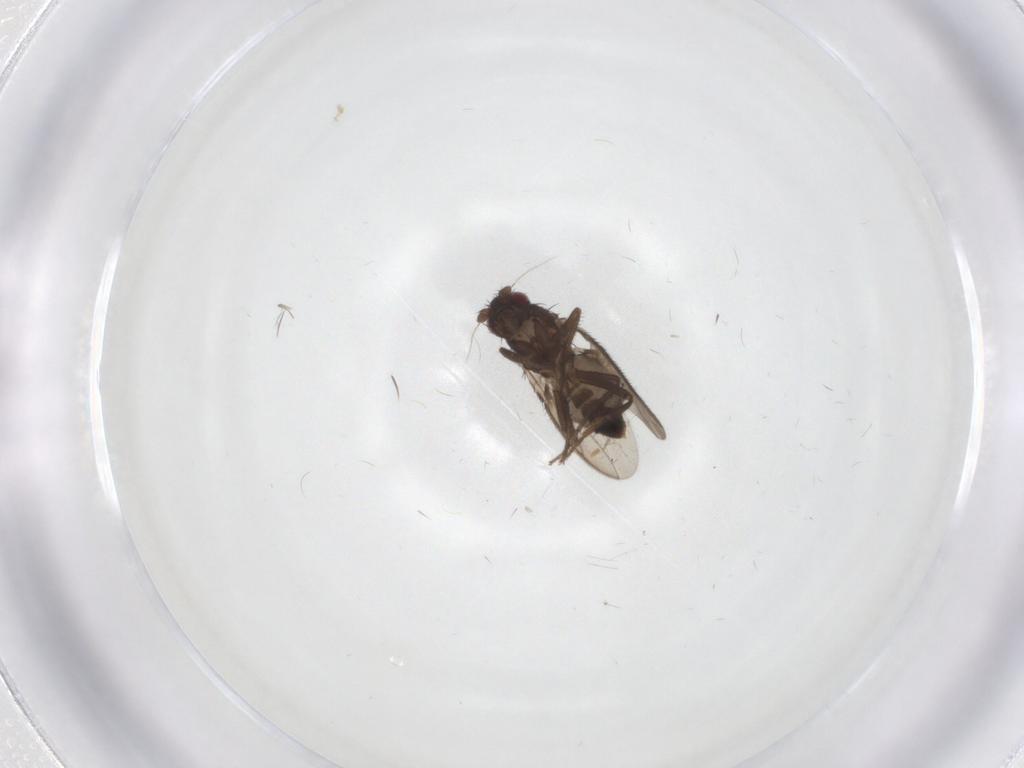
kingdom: Animalia
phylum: Arthropoda
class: Insecta
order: Diptera
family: Sphaeroceridae
